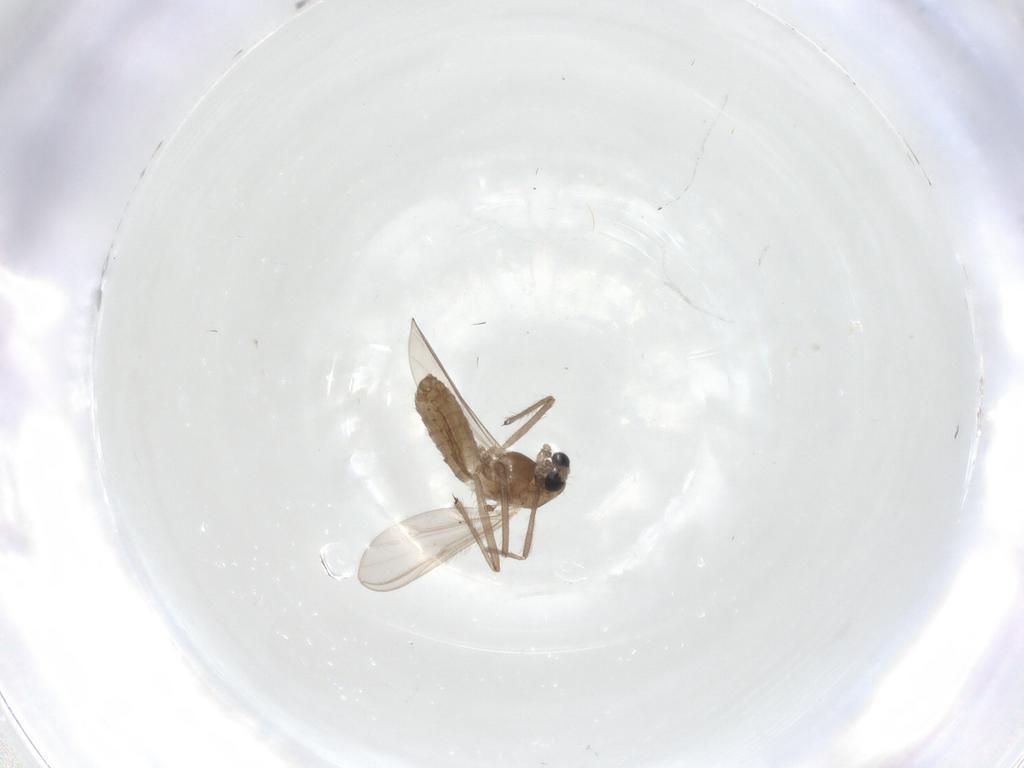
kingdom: Animalia
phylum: Arthropoda
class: Insecta
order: Diptera
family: Chironomidae
